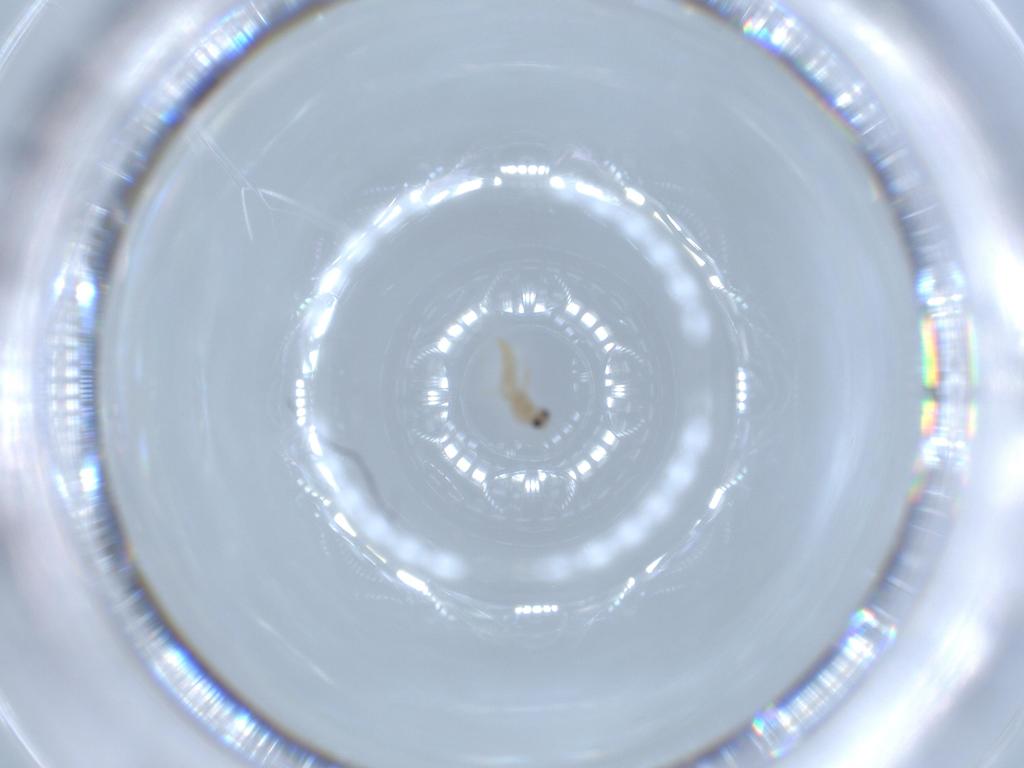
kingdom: Animalia
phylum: Arthropoda
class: Insecta
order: Diptera
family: Cecidomyiidae
